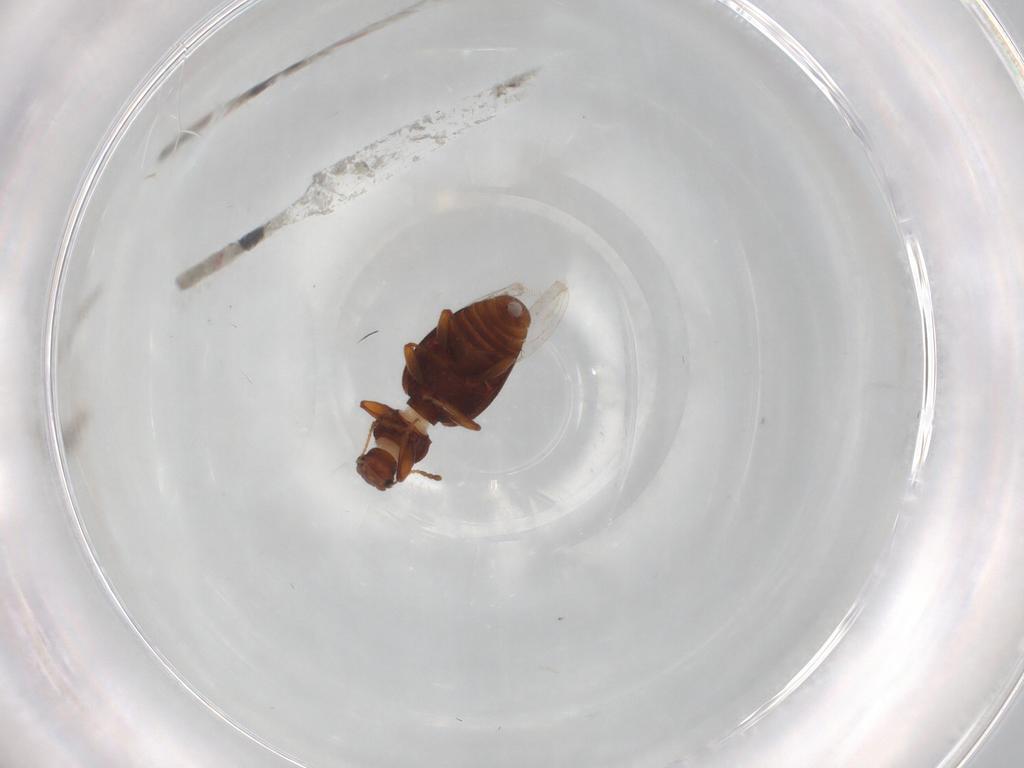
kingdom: Animalia
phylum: Arthropoda
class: Insecta
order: Coleoptera
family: Latridiidae
